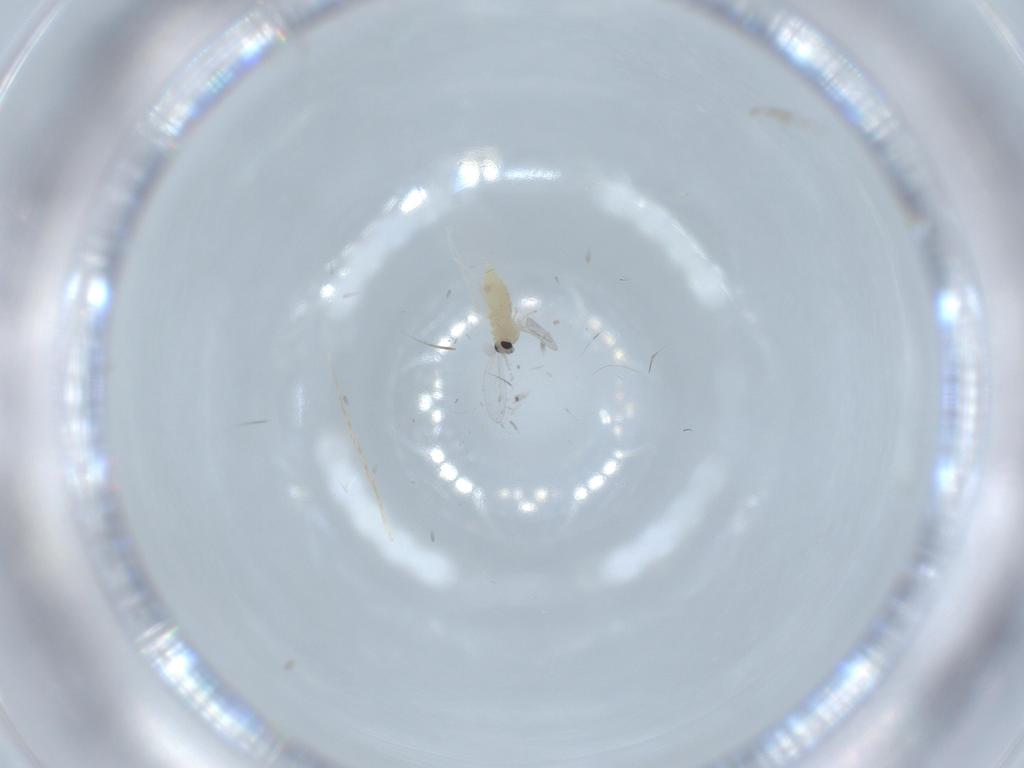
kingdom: Animalia
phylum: Arthropoda
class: Insecta
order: Diptera
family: Cecidomyiidae
